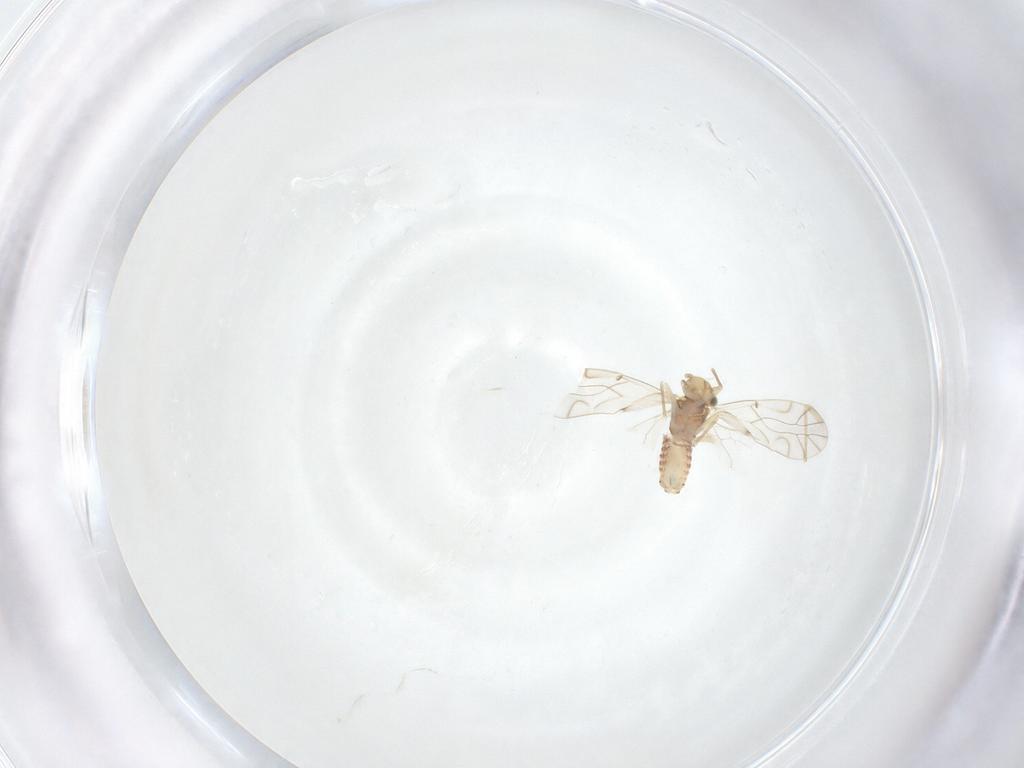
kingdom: Animalia
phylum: Arthropoda
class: Insecta
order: Psocodea
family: Lachesillidae
